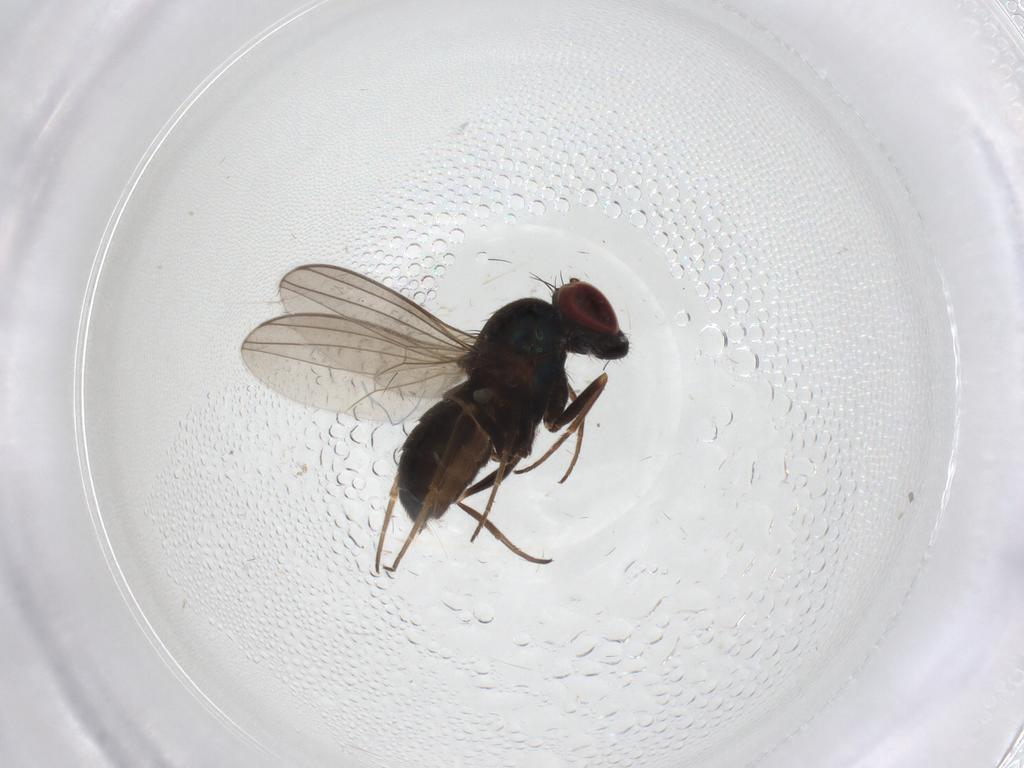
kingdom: Animalia
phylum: Arthropoda
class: Insecta
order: Diptera
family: Dolichopodidae
